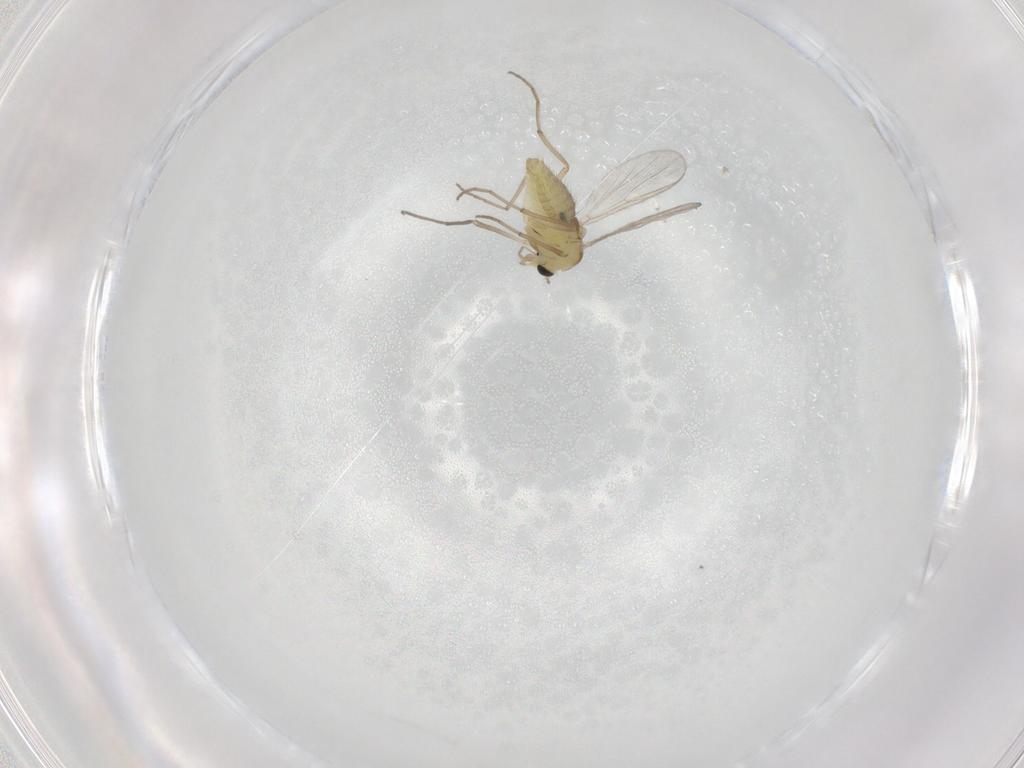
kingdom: Animalia
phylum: Arthropoda
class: Insecta
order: Diptera
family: Chironomidae
